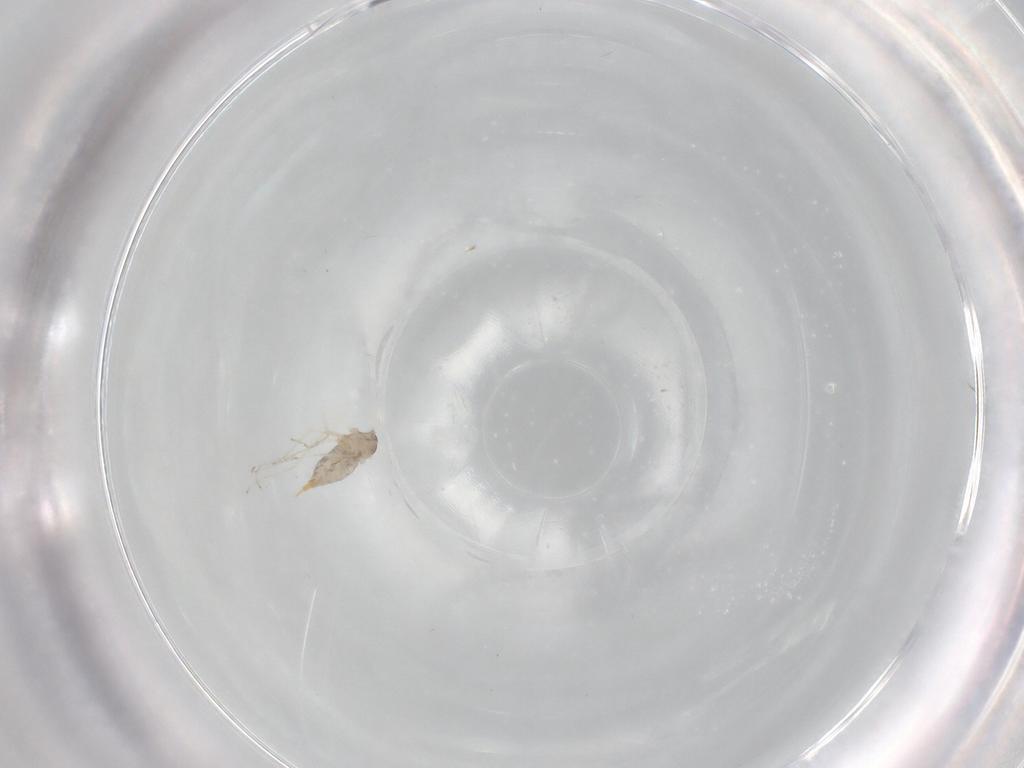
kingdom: Animalia
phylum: Arthropoda
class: Insecta
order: Diptera
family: Cecidomyiidae
